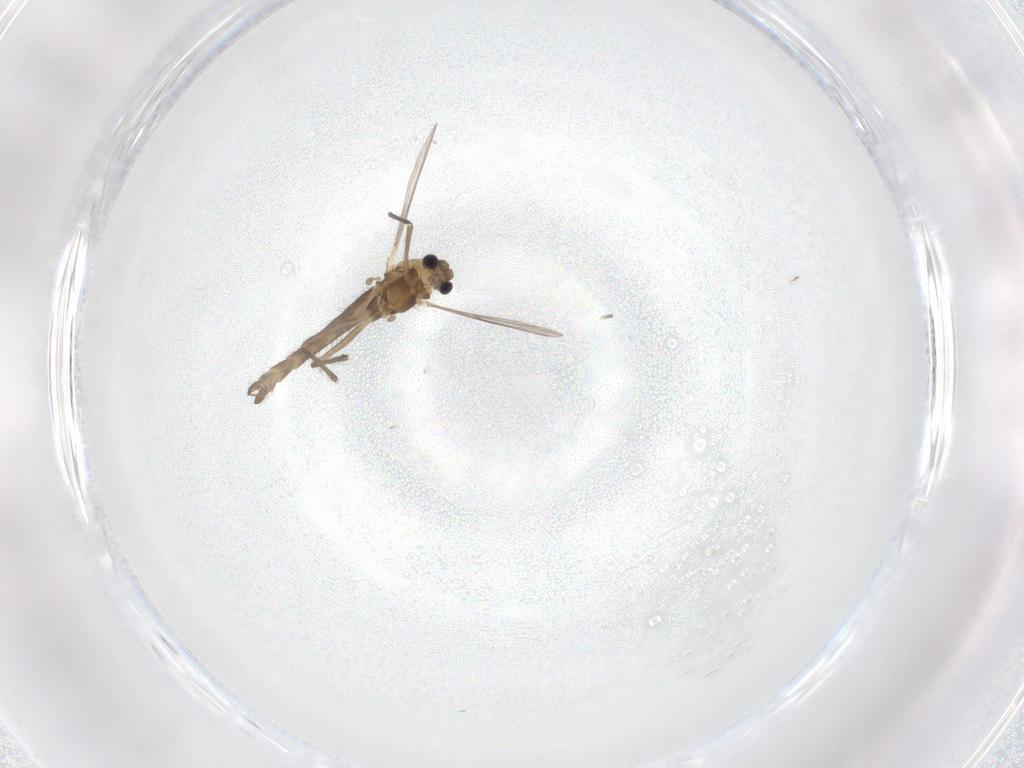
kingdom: Animalia
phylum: Arthropoda
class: Insecta
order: Diptera
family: Chironomidae
